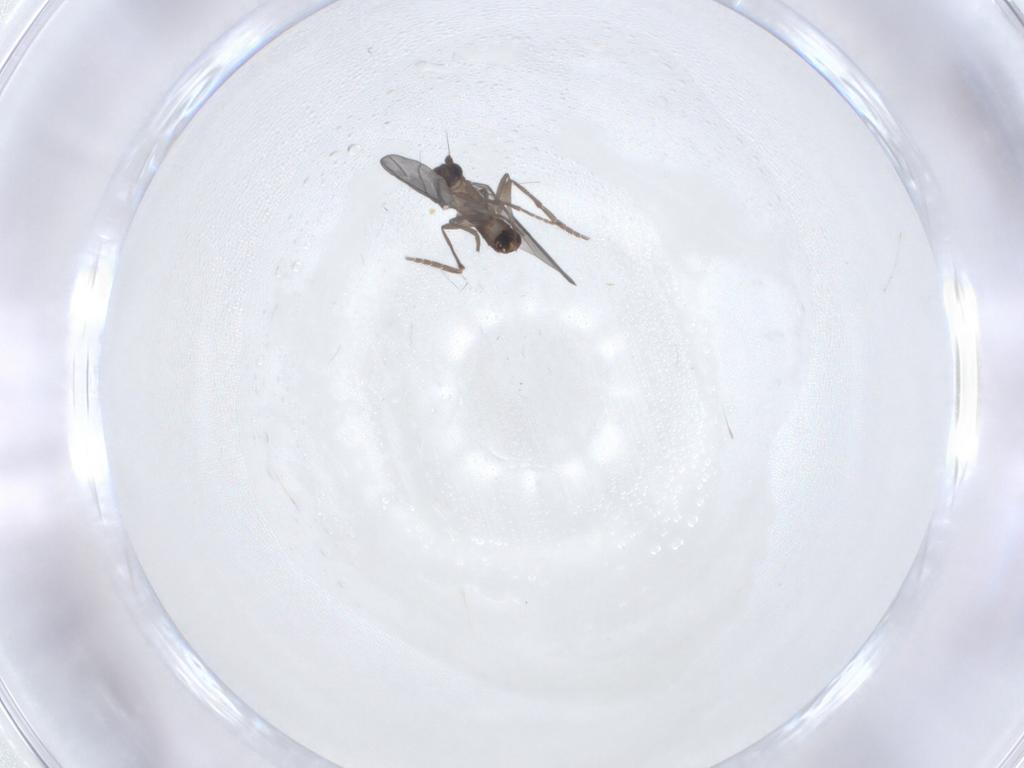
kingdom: Animalia
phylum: Arthropoda
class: Insecta
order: Diptera
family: Phoridae
